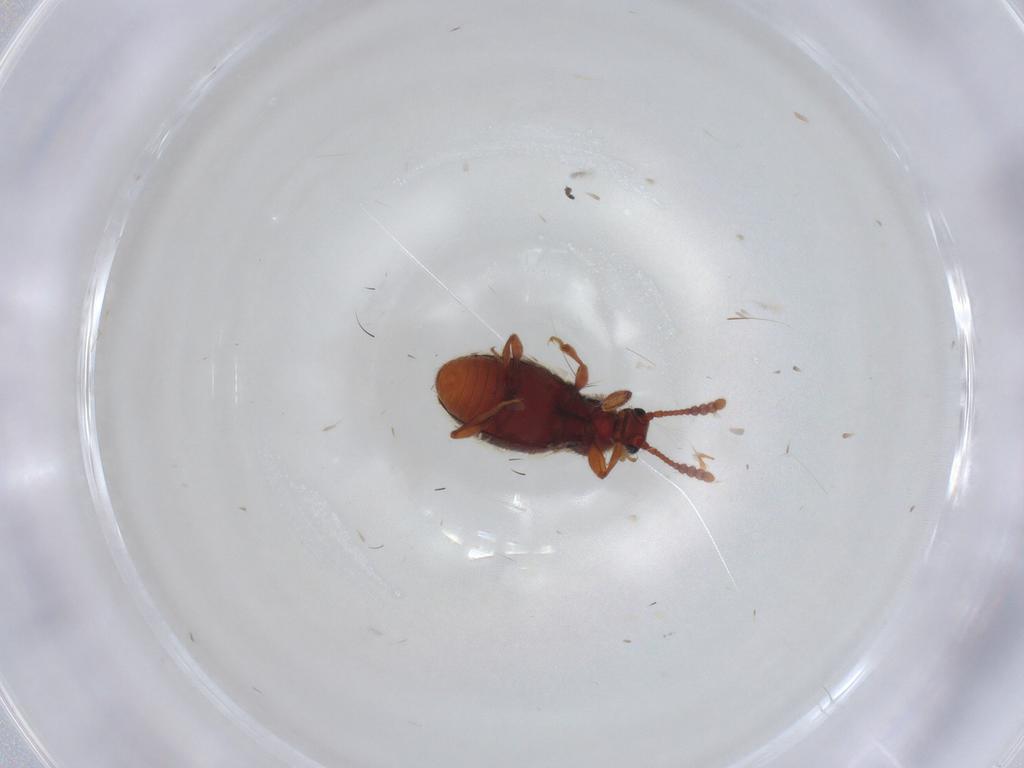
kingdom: Animalia
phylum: Arthropoda
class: Insecta
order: Coleoptera
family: Staphylinidae
